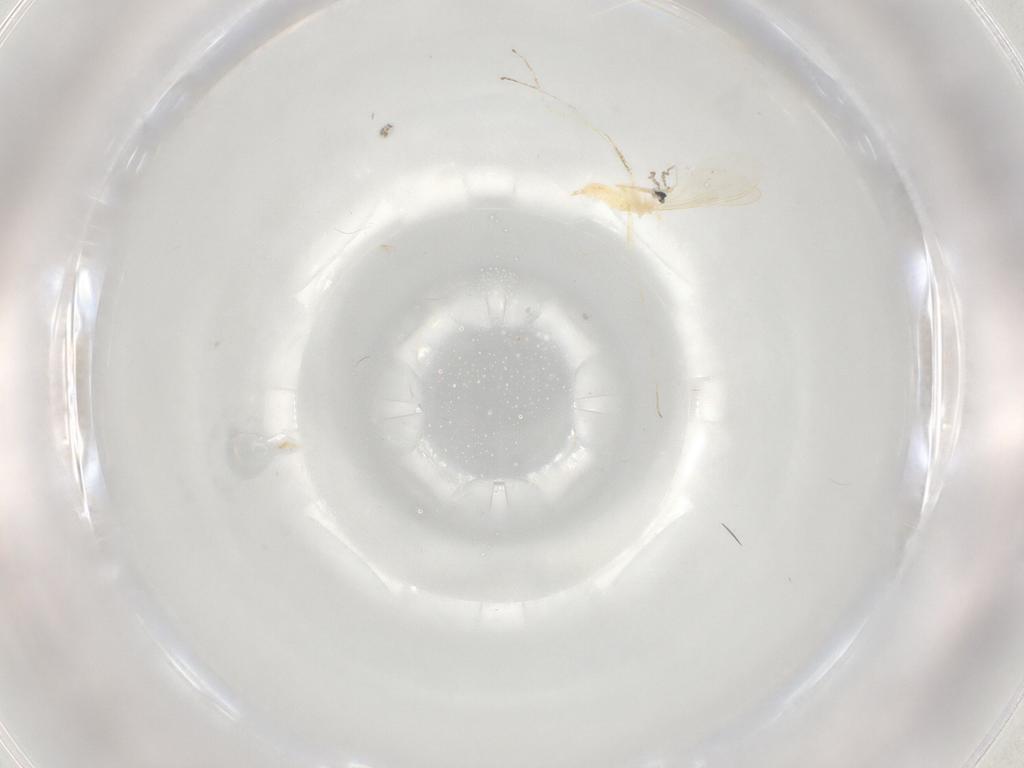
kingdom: Animalia
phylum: Arthropoda
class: Insecta
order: Diptera
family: Cecidomyiidae
